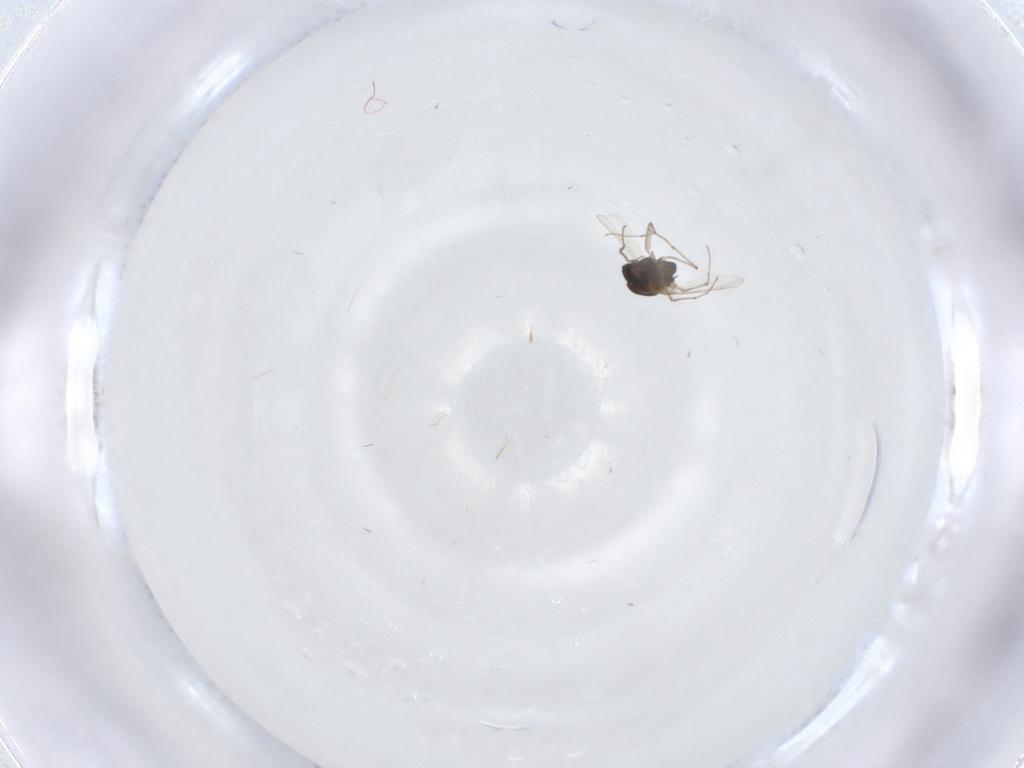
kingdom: Animalia
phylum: Arthropoda
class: Insecta
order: Diptera
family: Chironomidae
